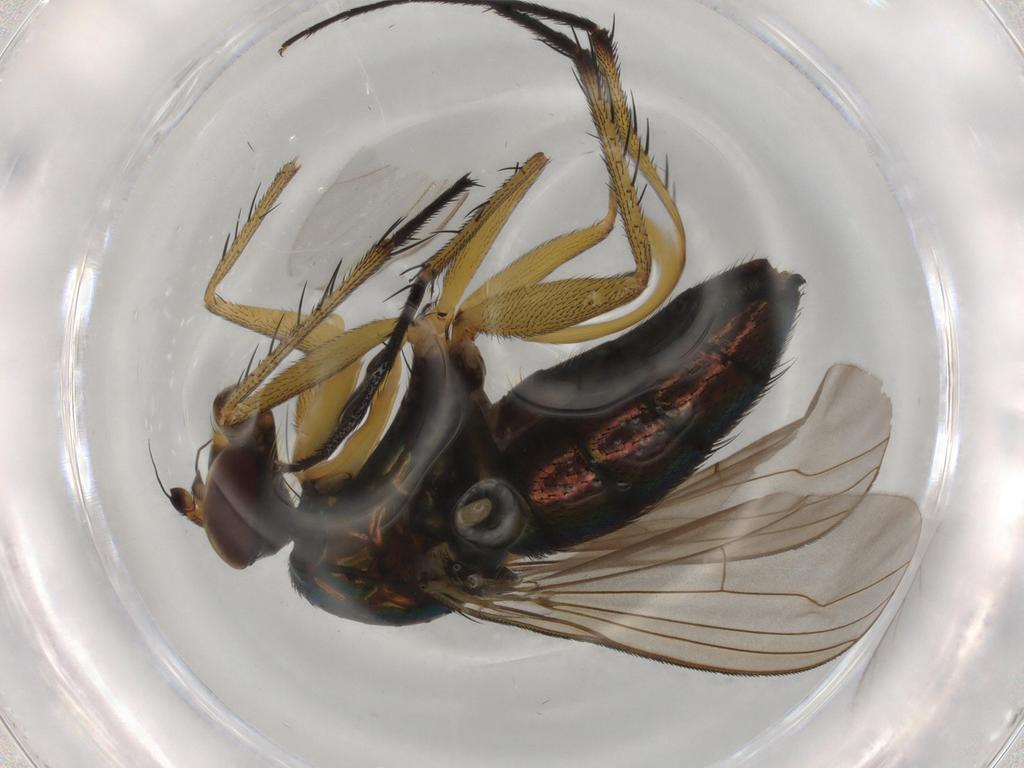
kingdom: Animalia
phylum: Arthropoda
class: Insecta
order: Diptera
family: Dolichopodidae
